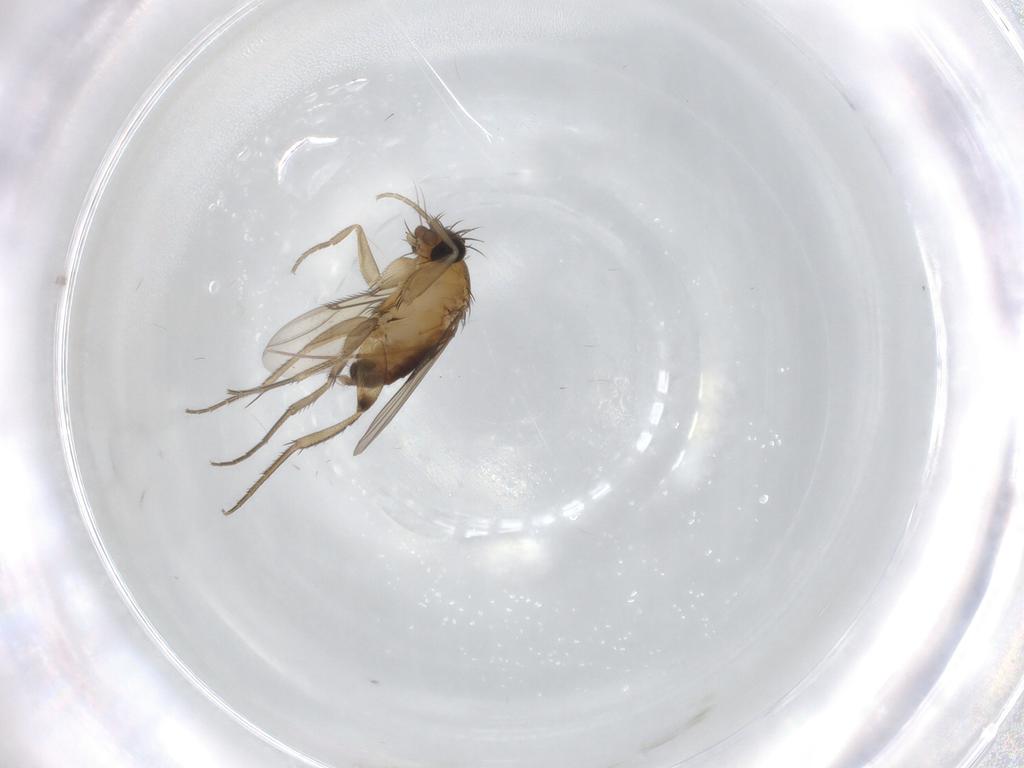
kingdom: Animalia
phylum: Arthropoda
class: Insecta
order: Diptera
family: Phoridae
